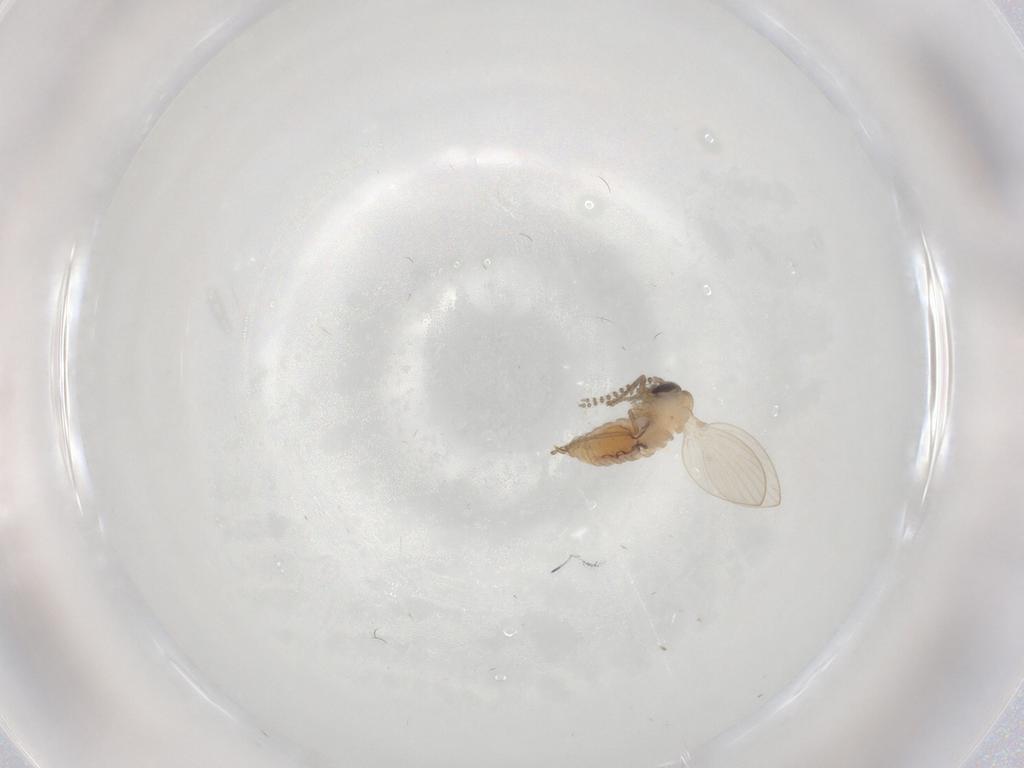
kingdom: Animalia
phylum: Arthropoda
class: Insecta
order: Diptera
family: Psychodidae
